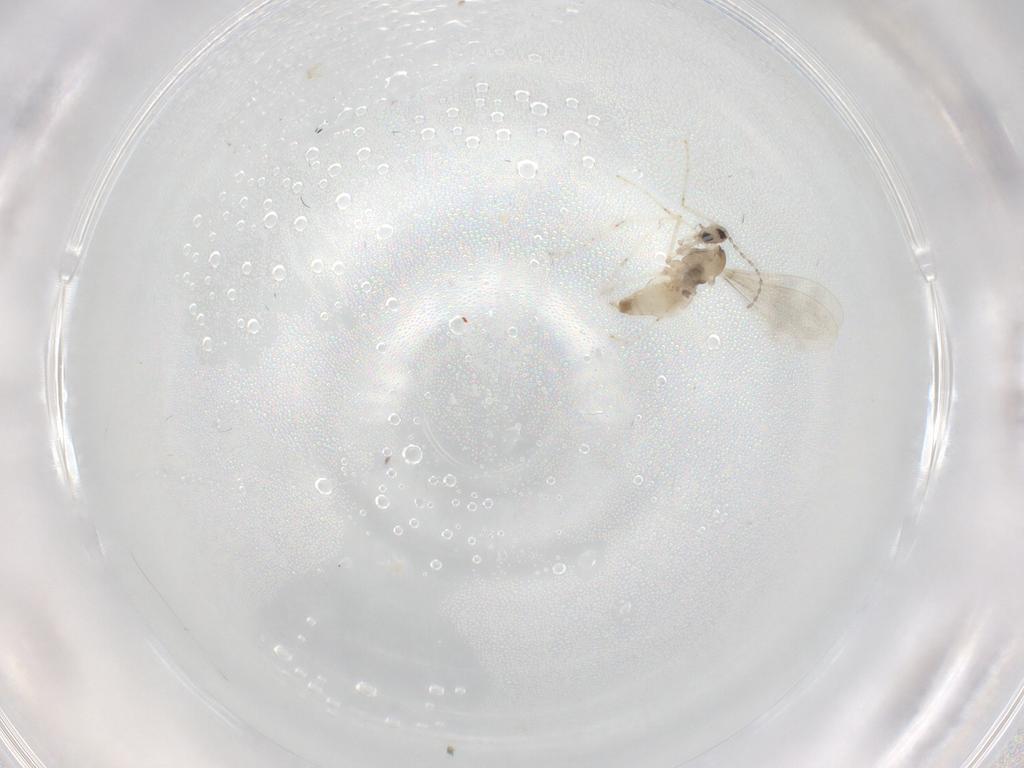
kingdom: Animalia
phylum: Arthropoda
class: Insecta
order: Diptera
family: Cecidomyiidae
